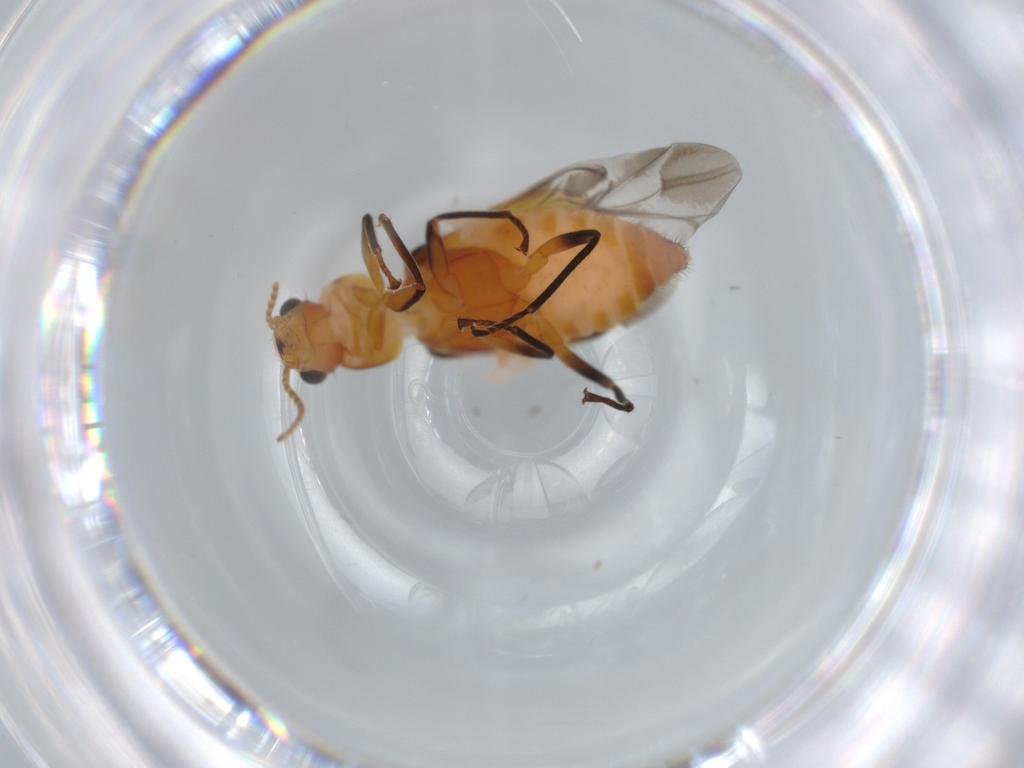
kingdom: Animalia
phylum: Arthropoda
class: Insecta
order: Coleoptera
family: Melyridae
